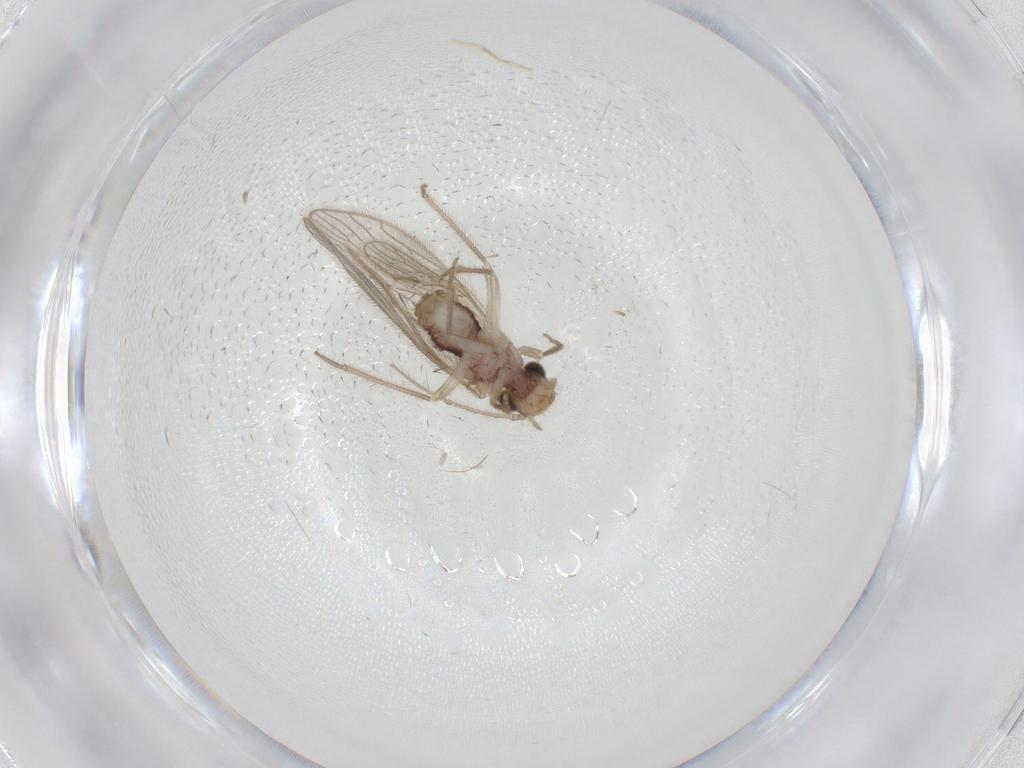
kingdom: Animalia
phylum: Arthropoda
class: Insecta
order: Psocodea
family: Dolabellopsocidae
